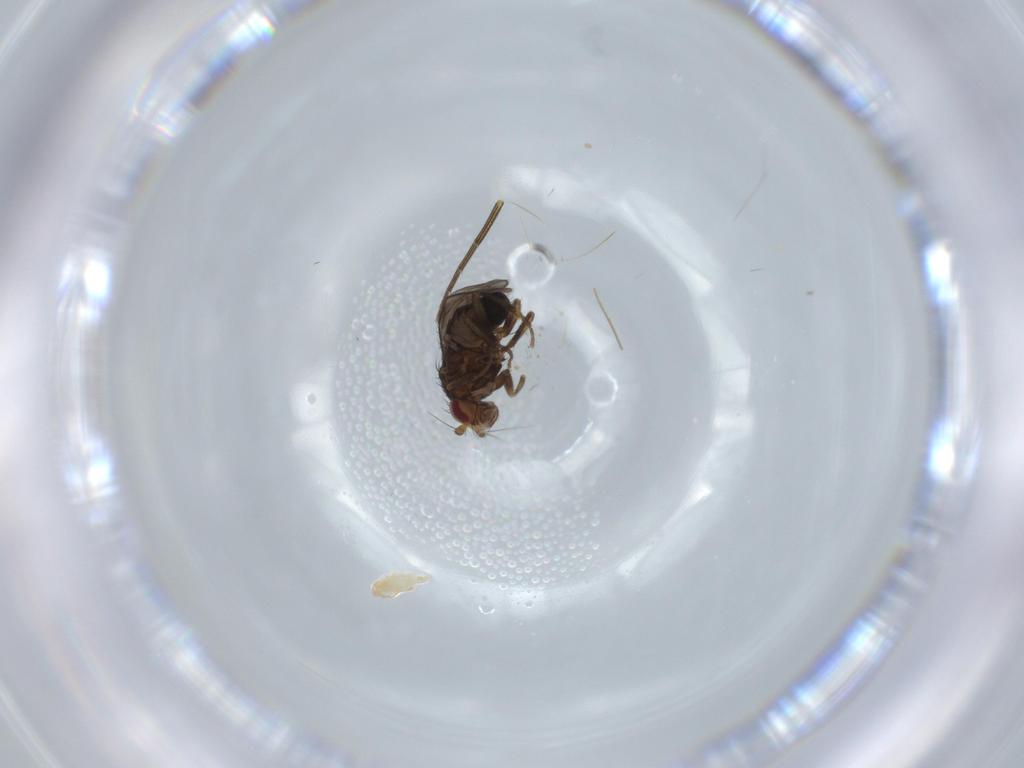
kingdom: Animalia
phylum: Arthropoda
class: Insecta
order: Diptera
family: Sphaeroceridae
